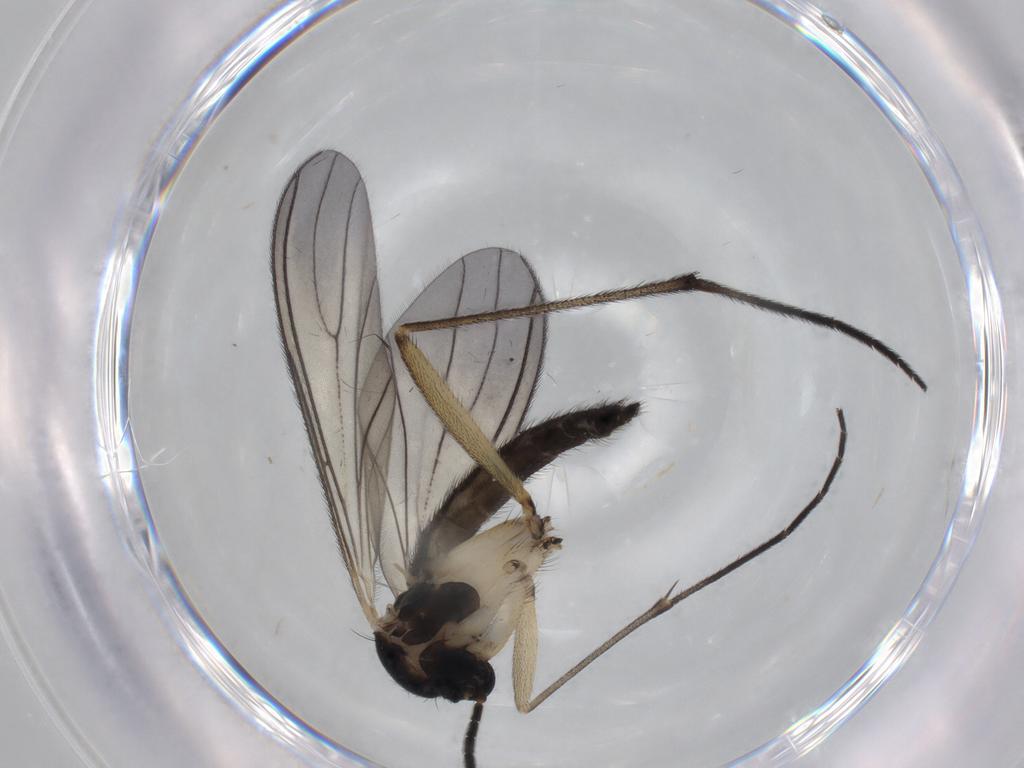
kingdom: Animalia
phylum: Arthropoda
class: Insecta
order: Diptera
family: Sciaridae
